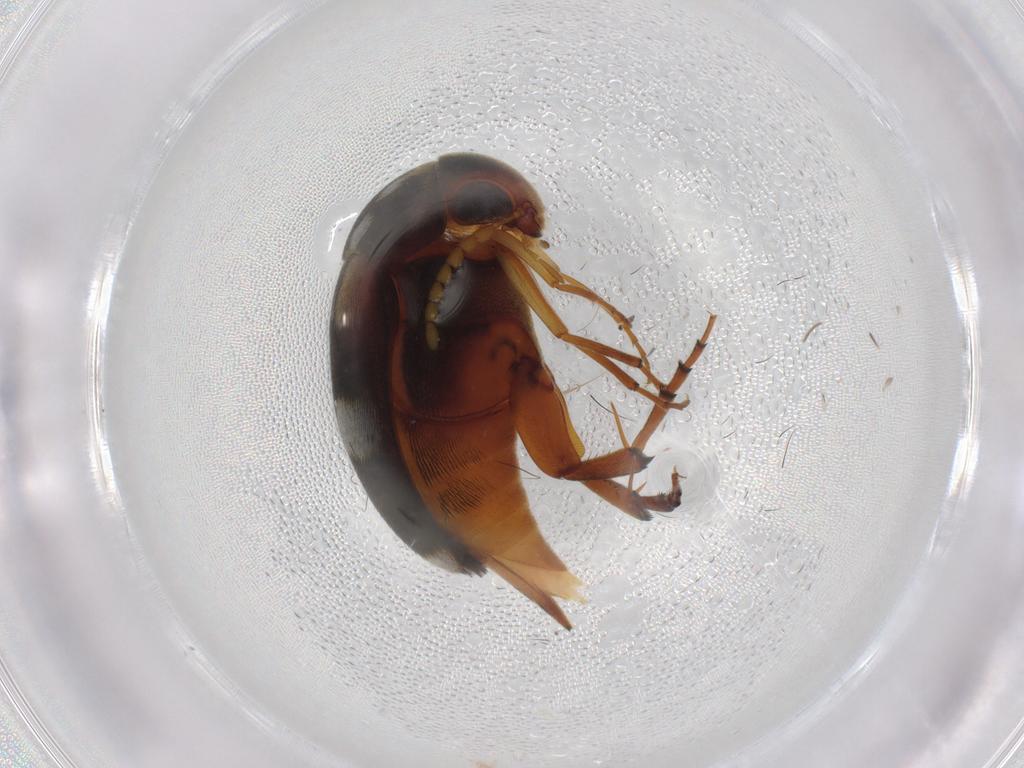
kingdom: Animalia
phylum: Arthropoda
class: Insecta
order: Coleoptera
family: Mordellidae
